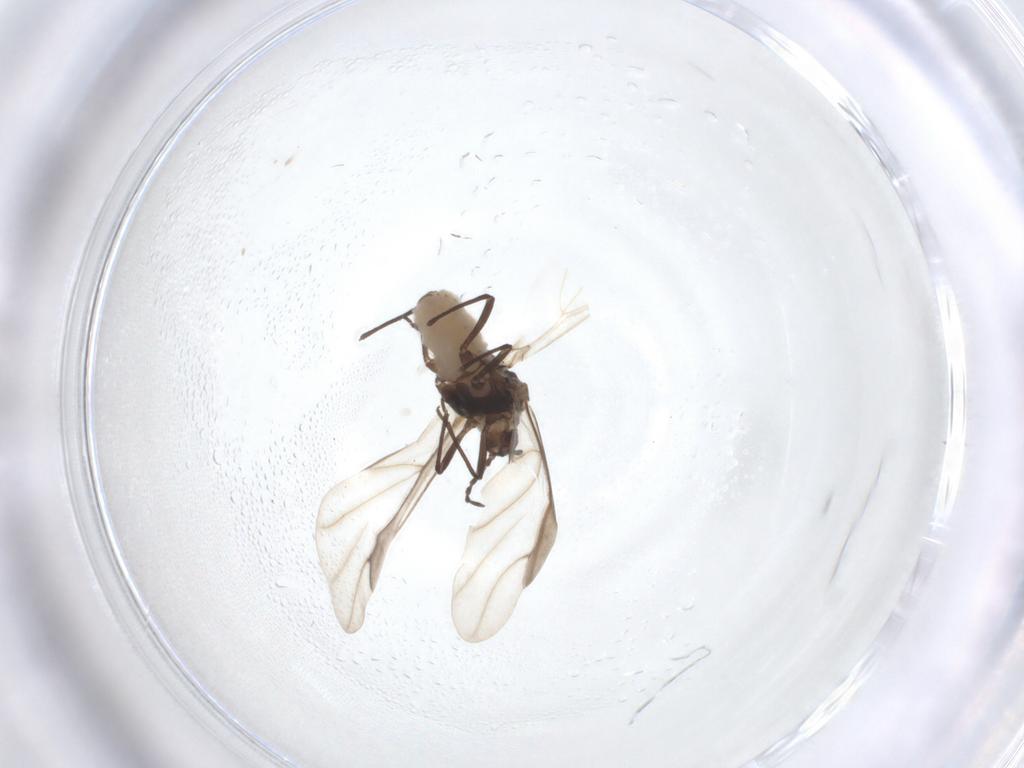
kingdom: Animalia
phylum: Arthropoda
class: Insecta
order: Hemiptera
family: Aphididae
